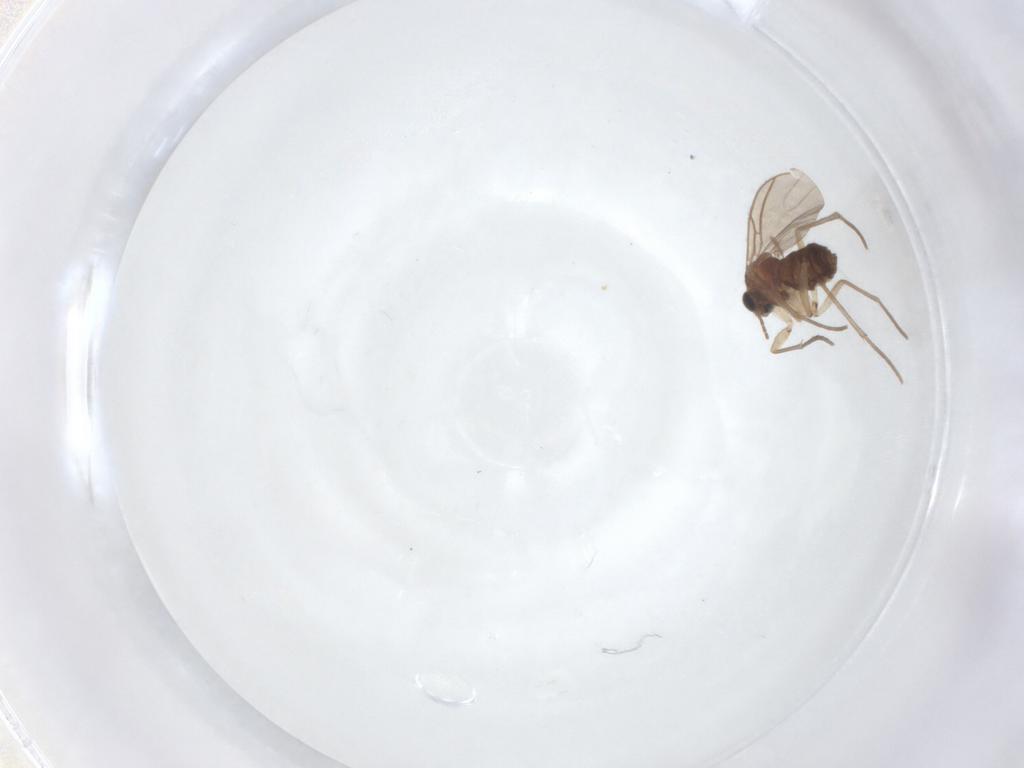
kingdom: Animalia
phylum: Arthropoda
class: Insecta
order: Diptera
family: Sciaridae
